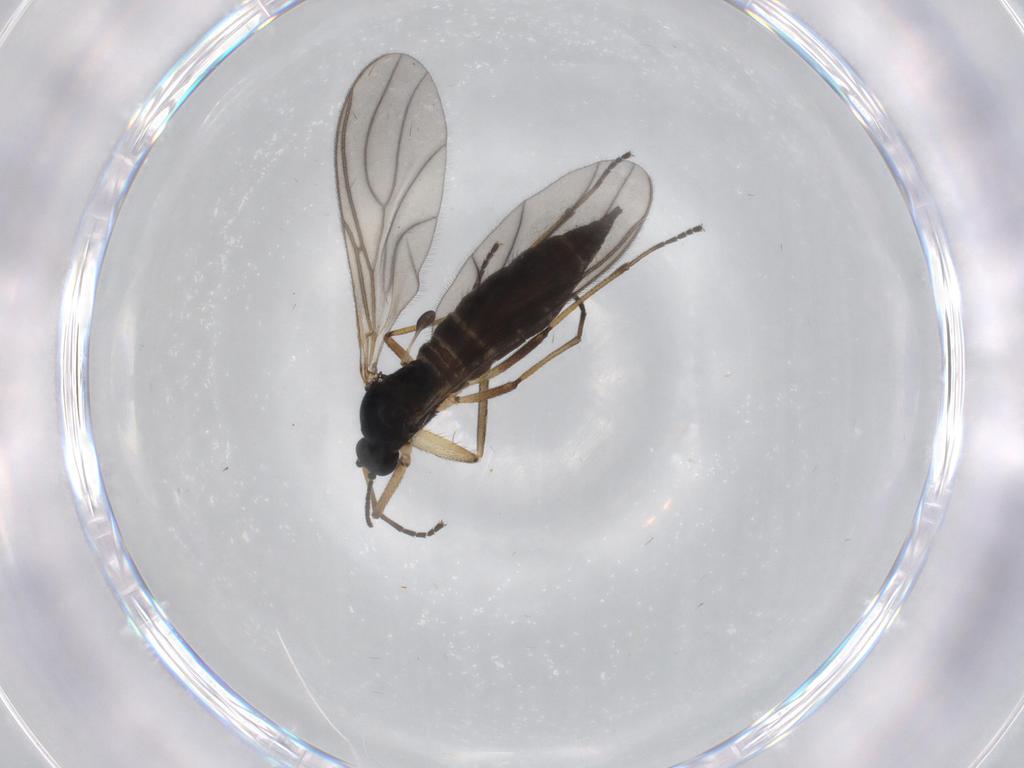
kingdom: Animalia
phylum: Arthropoda
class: Insecta
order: Diptera
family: Sciaridae
